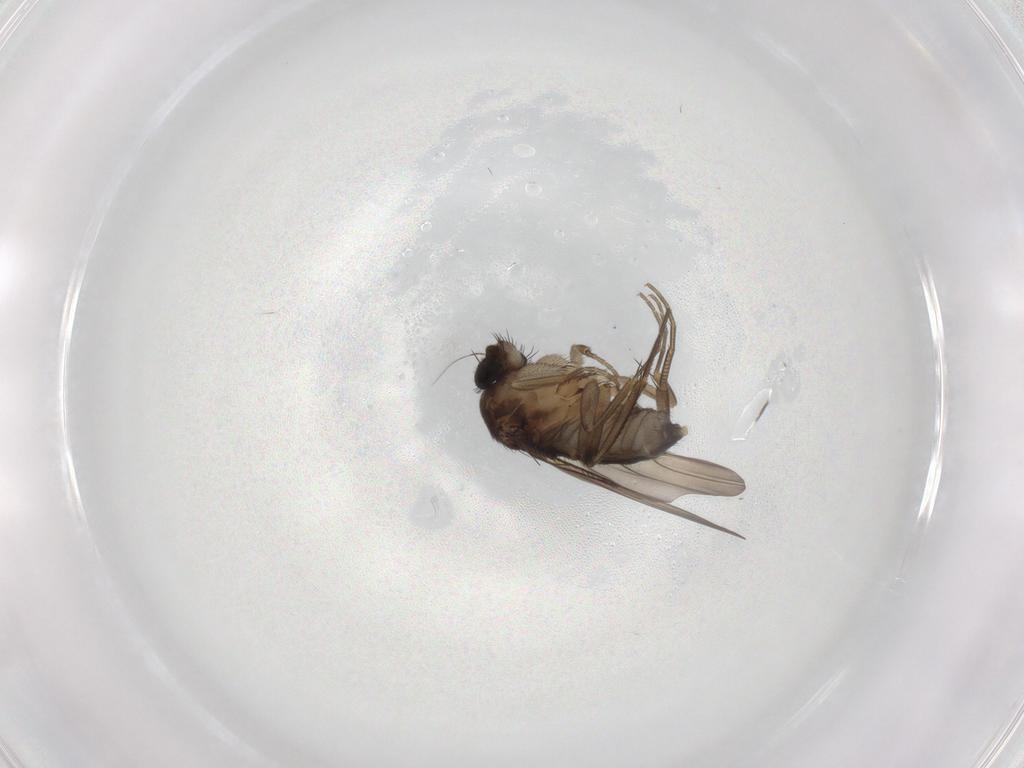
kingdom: Animalia
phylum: Arthropoda
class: Insecta
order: Diptera
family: Phoridae
